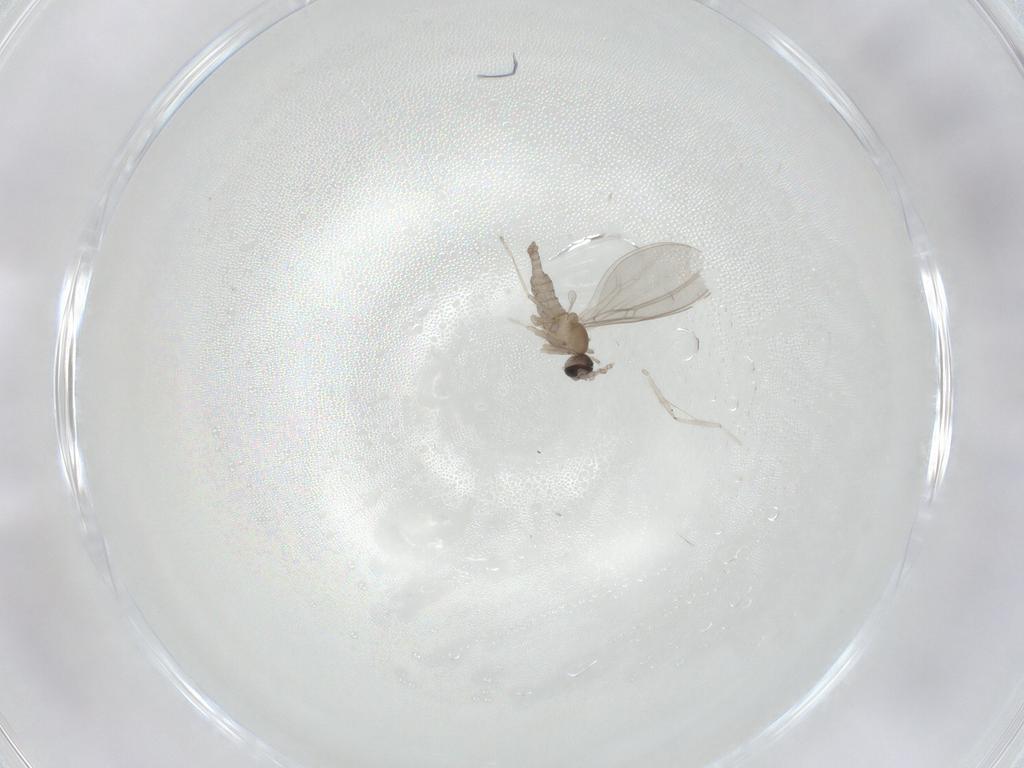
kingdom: Animalia
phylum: Arthropoda
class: Insecta
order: Diptera
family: Cecidomyiidae
